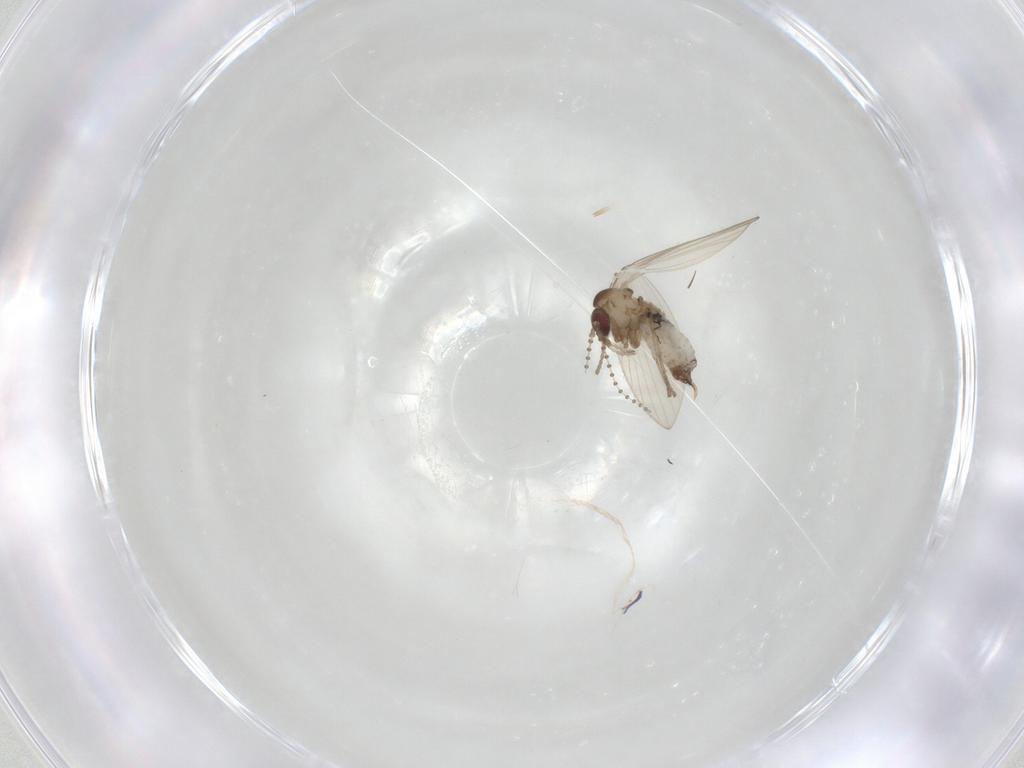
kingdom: Animalia
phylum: Arthropoda
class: Insecta
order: Diptera
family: Psychodidae
